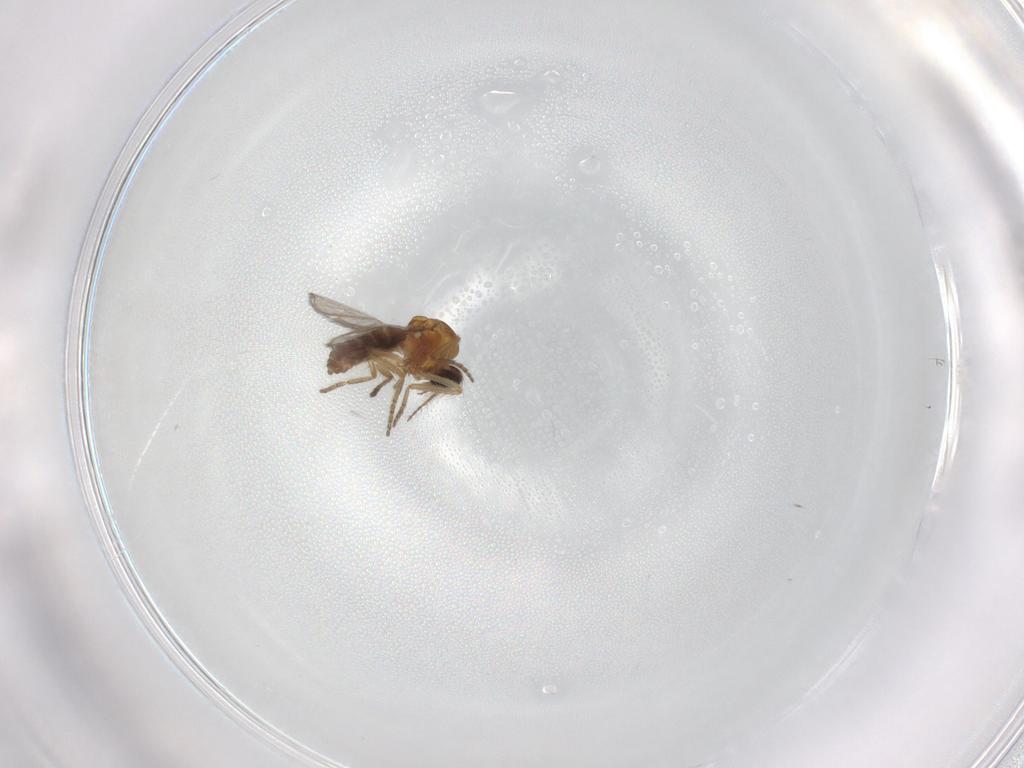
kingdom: Animalia
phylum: Arthropoda
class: Insecta
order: Diptera
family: Ceratopogonidae
